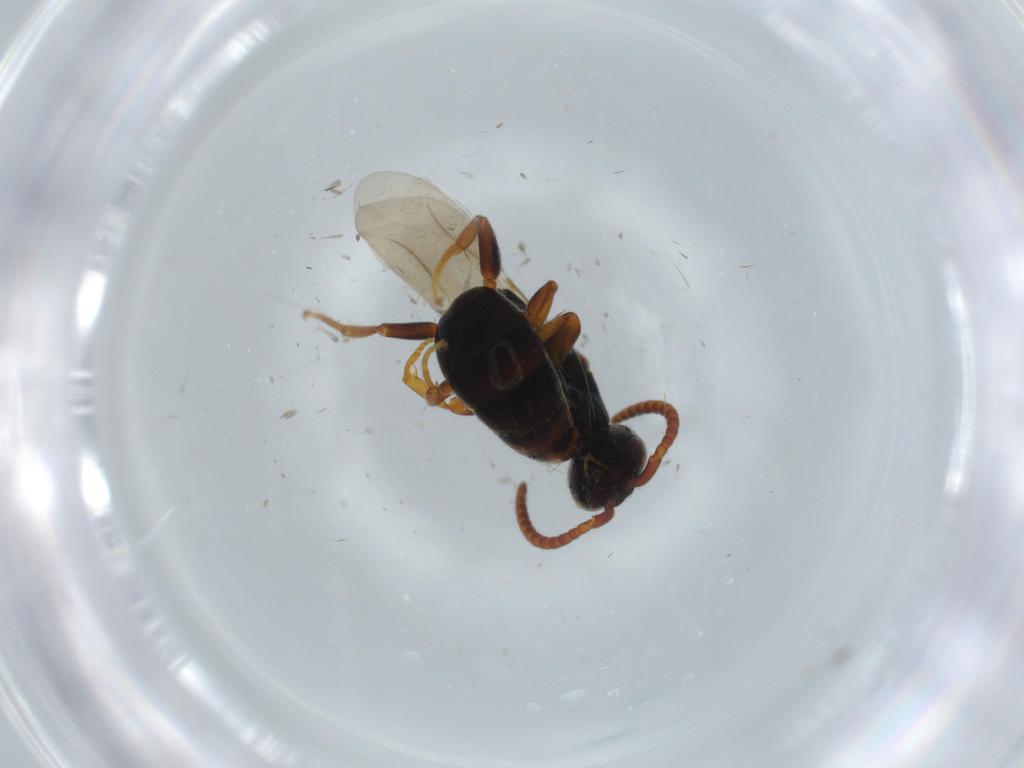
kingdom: Animalia
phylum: Arthropoda
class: Insecta
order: Hymenoptera
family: Bethylidae
